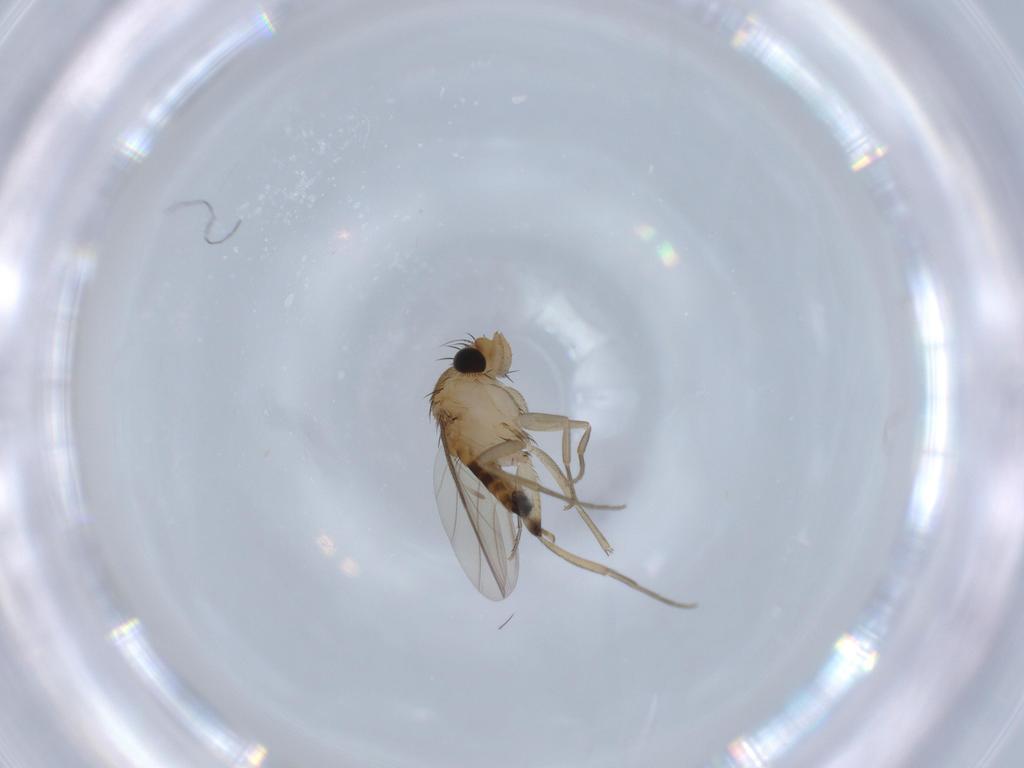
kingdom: Animalia
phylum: Arthropoda
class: Insecta
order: Diptera
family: Phoridae
